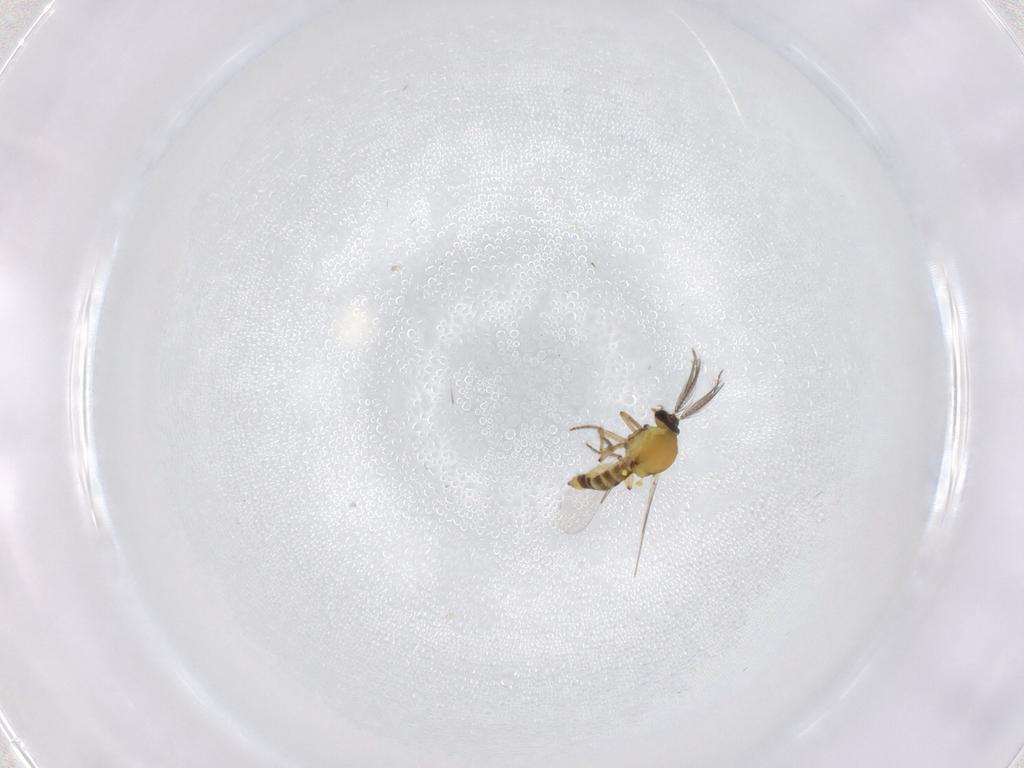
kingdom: Animalia
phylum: Arthropoda
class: Insecta
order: Diptera
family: Ceratopogonidae
